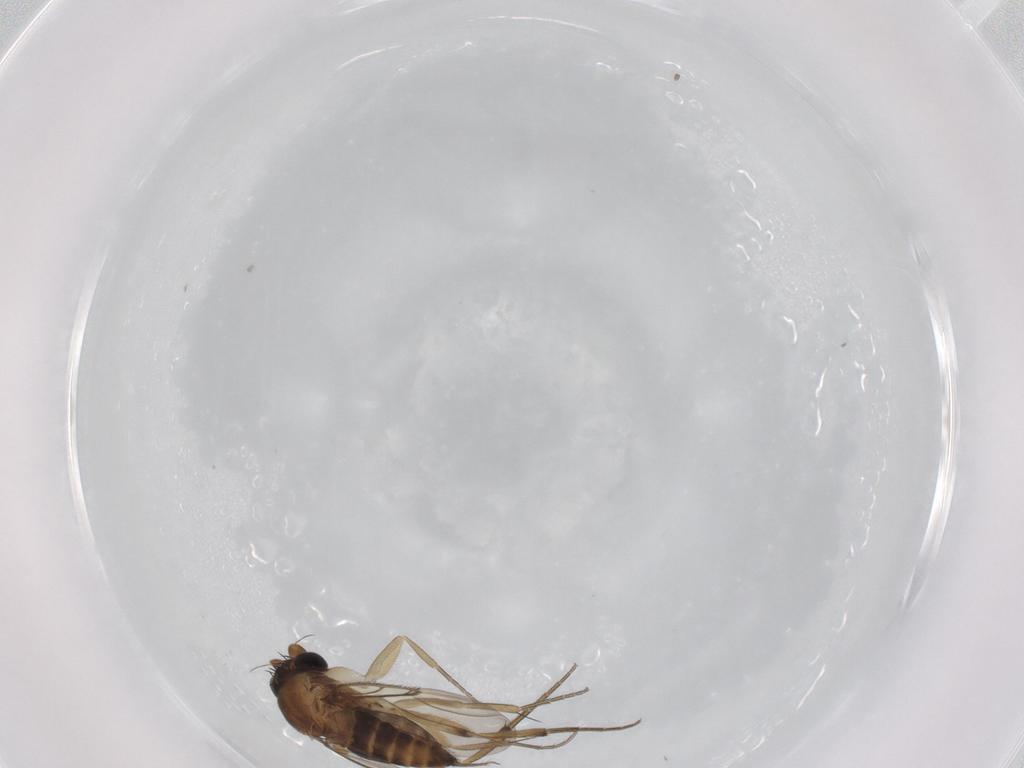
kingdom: Animalia
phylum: Arthropoda
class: Insecta
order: Diptera
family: Phoridae
